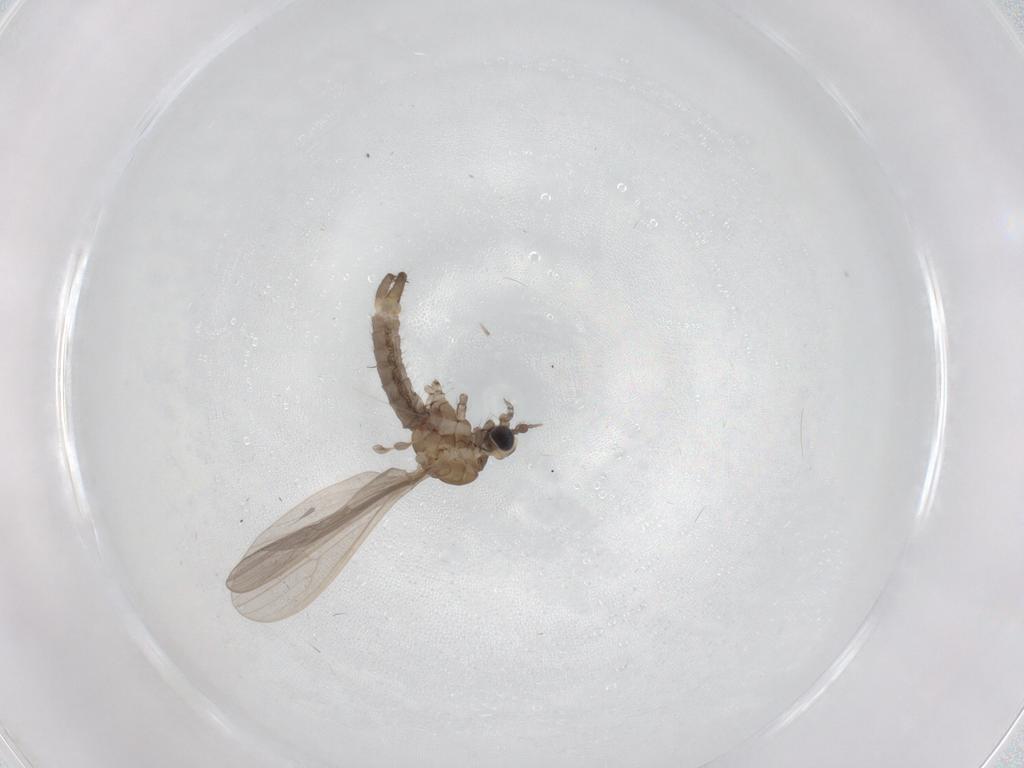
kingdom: Animalia
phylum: Arthropoda
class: Insecta
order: Diptera
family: Limoniidae
